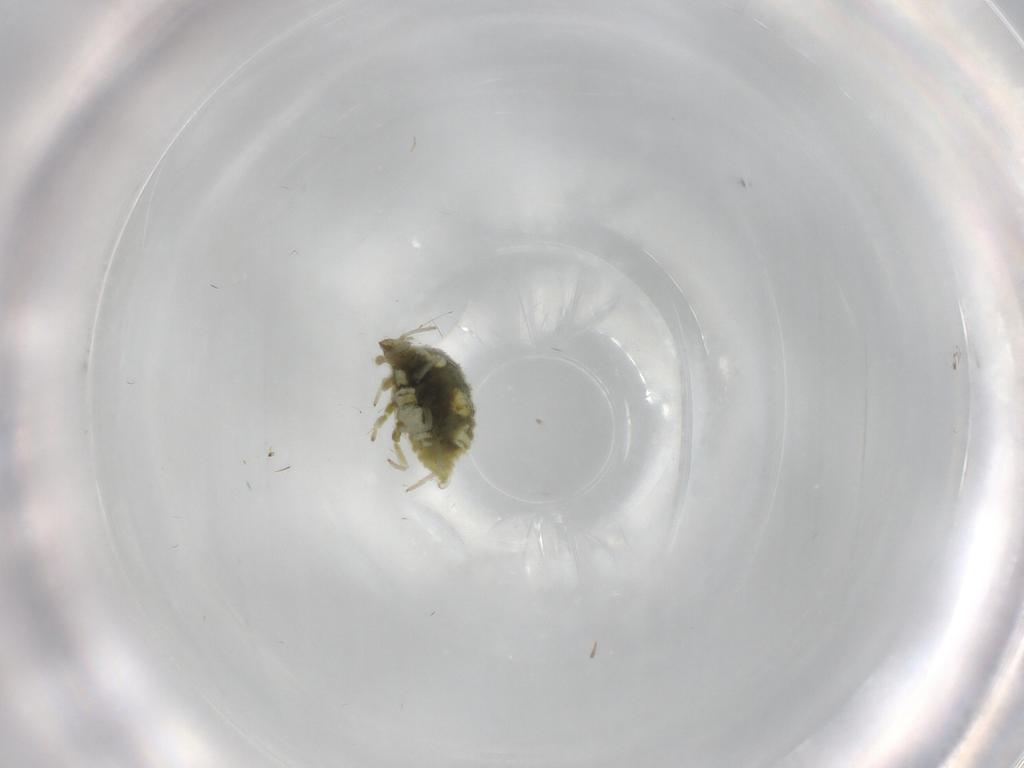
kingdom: Animalia
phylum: Arthropoda
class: Insecta
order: Neuroptera
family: Coniopterygidae
